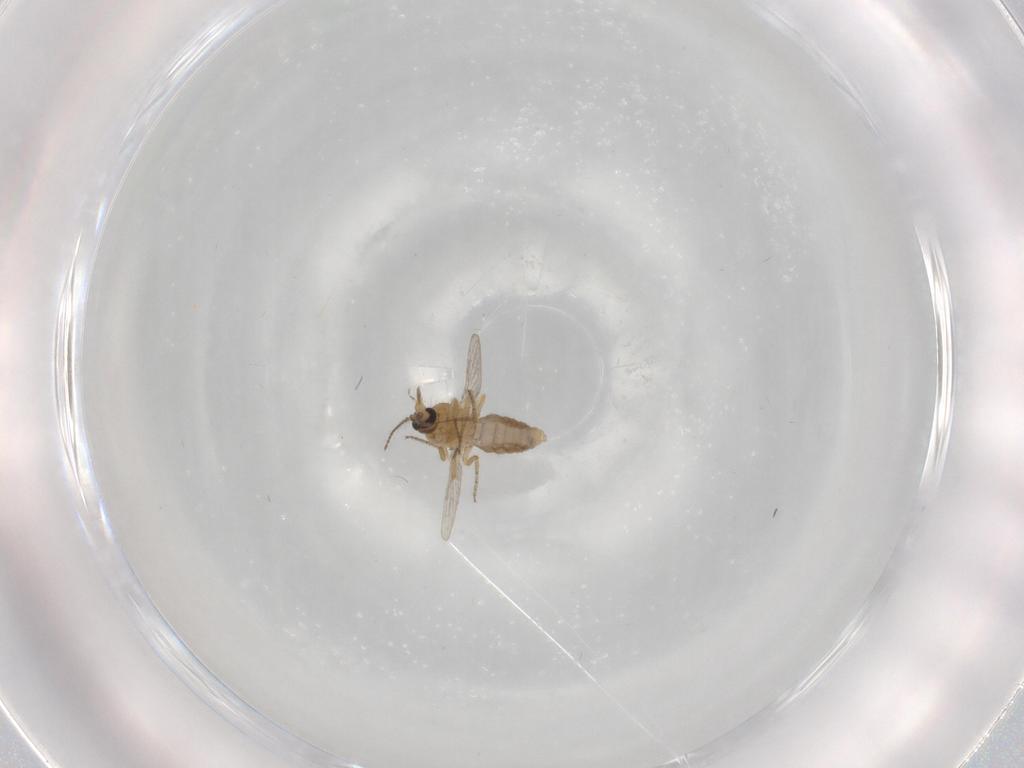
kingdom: Animalia
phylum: Arthropoda
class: Insecta
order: Diptera
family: Ceratopogonidae
